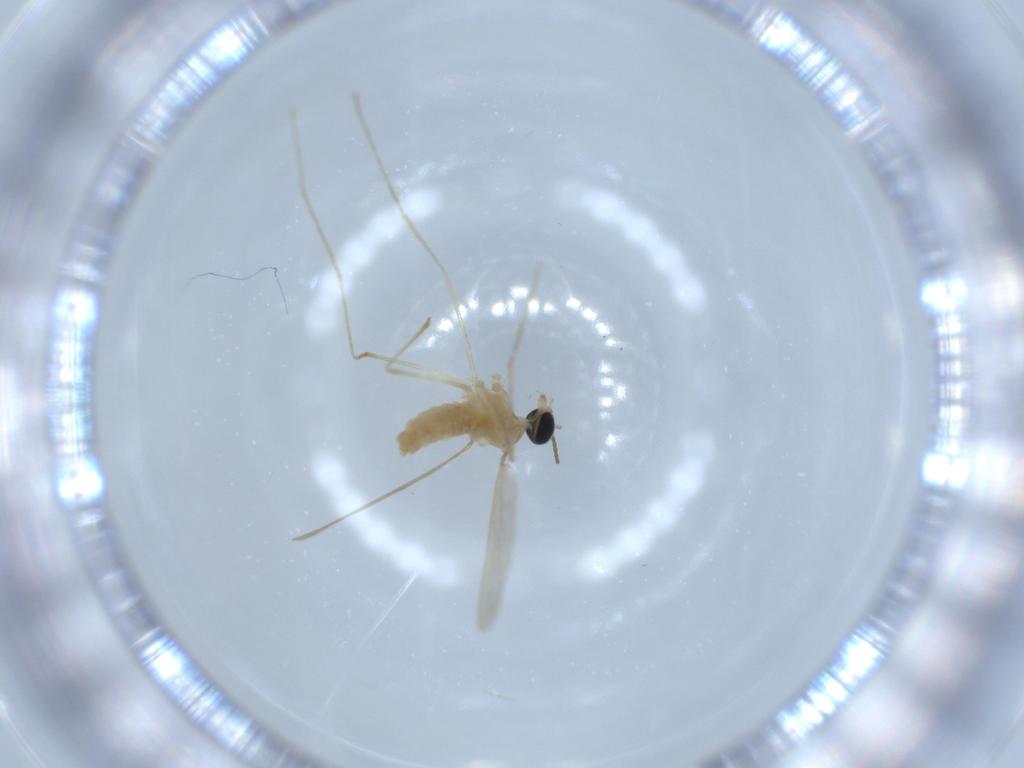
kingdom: Animalia
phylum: Arthropoda
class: Insecta
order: Diptera
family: Cecidomyiidae
